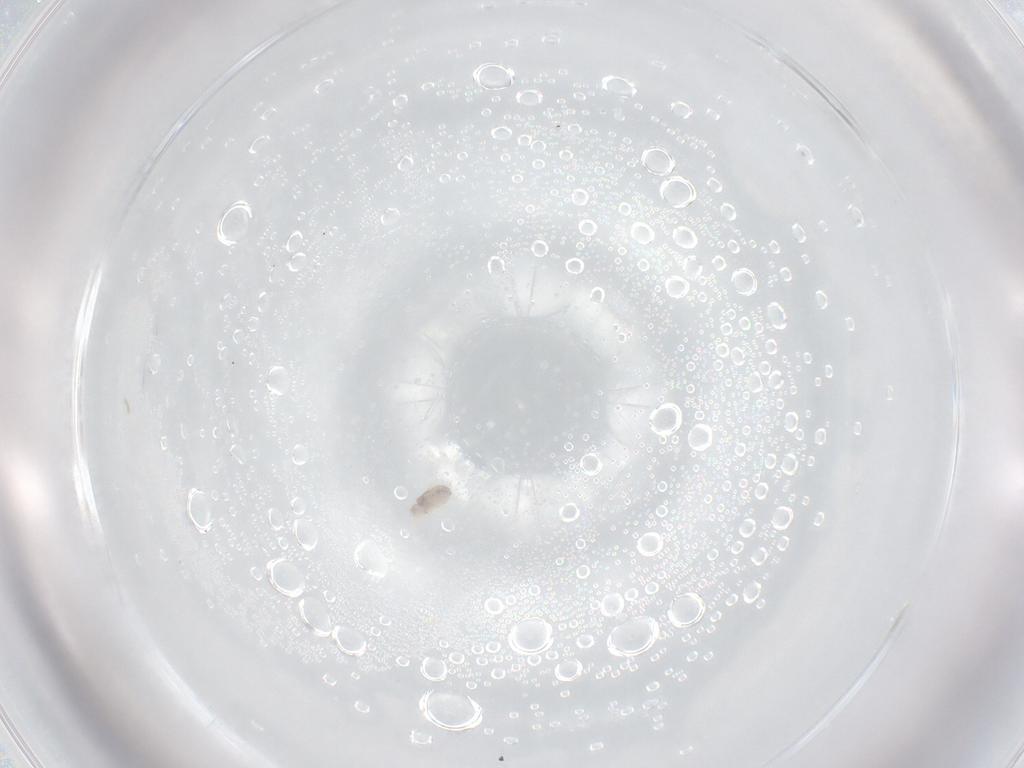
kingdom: Animalia
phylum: Arthropoda
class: Arachnida
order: Trombidiformes
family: Eupodidae
